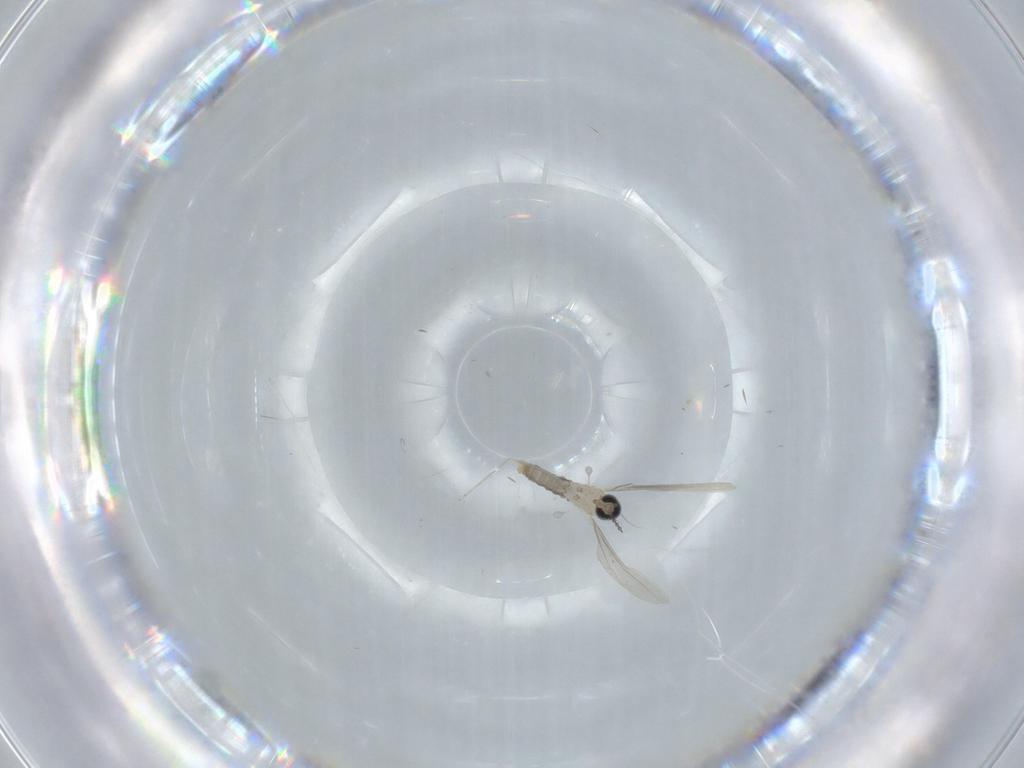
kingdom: Animalia
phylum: Arthropoda
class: Insecta
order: Diptera
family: Cecidomyiidae
